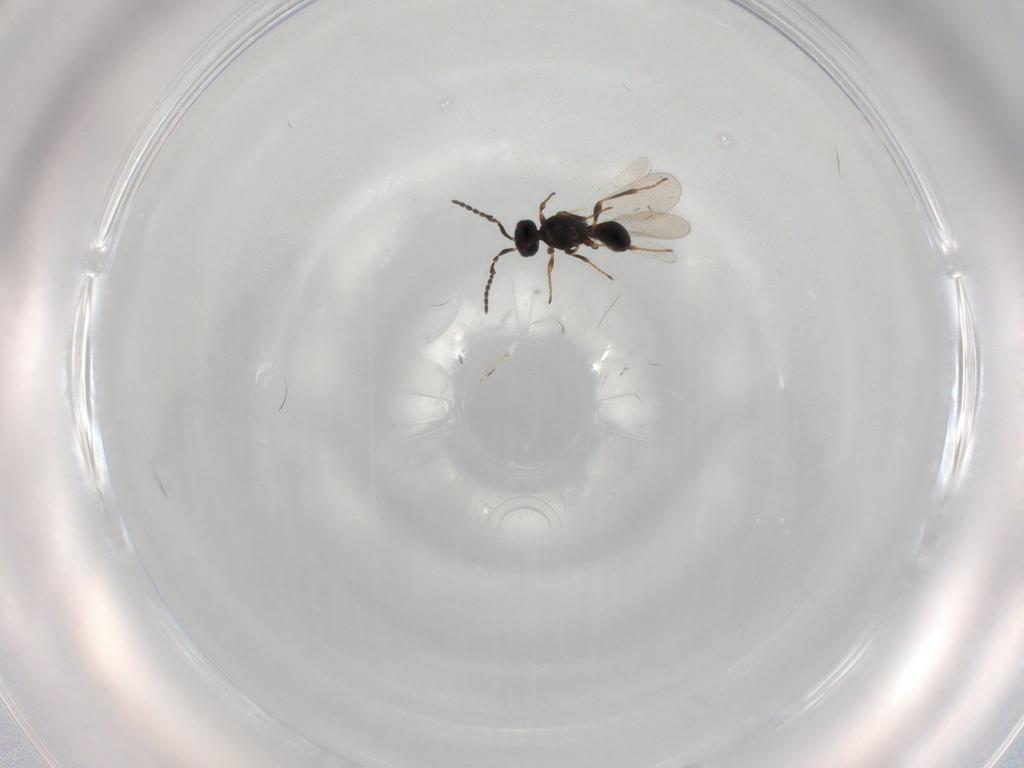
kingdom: Animalia
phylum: Arthropoda
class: Insecta
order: Hymenoptera
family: Platygastridae
